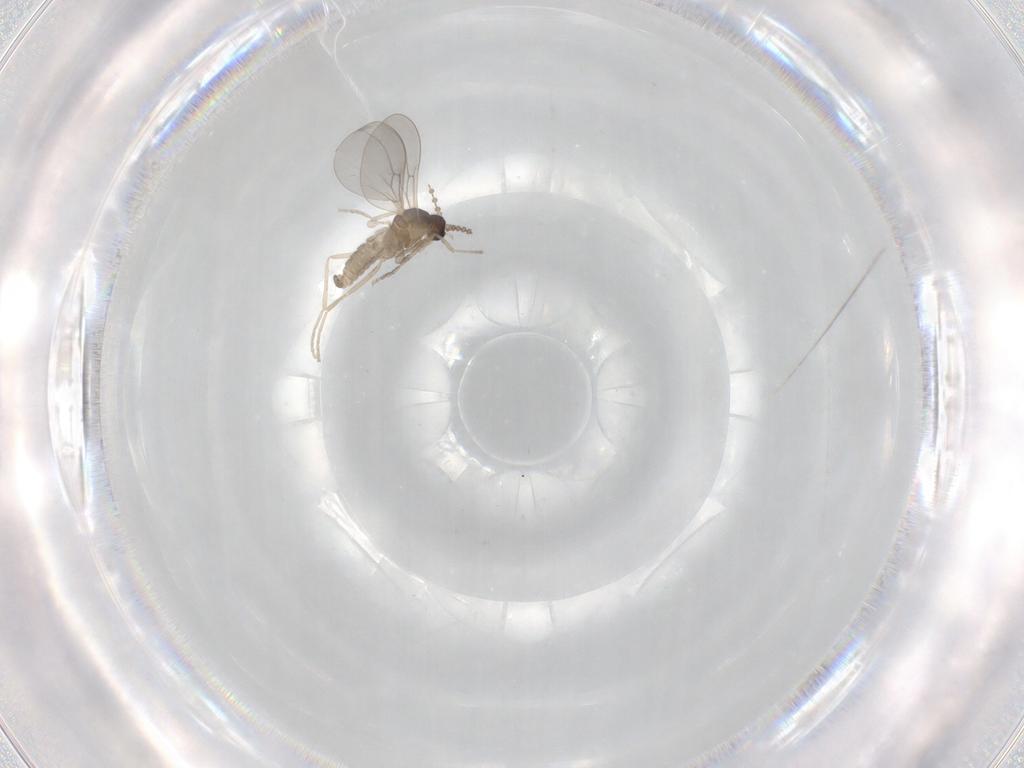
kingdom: Animalia
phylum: Arthropoda
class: Insecta
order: Diptera
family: Cecidomyiidae
